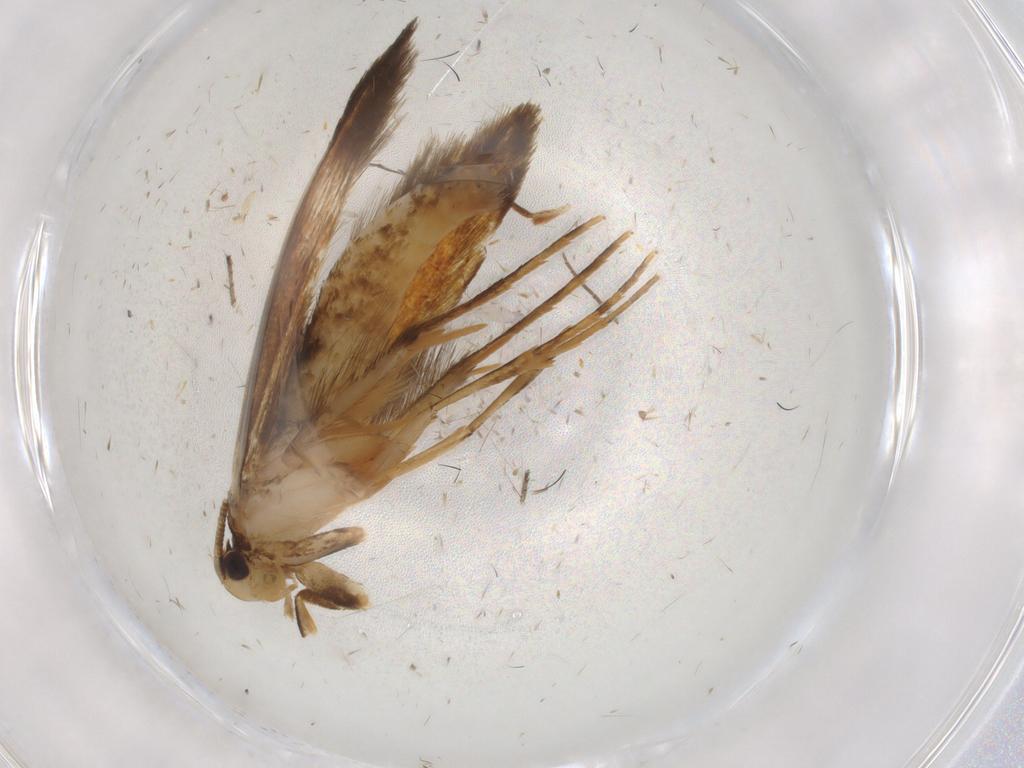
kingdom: Animalia
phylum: Arthropoda
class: Insecta
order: Lepidoptera
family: Tineidae
